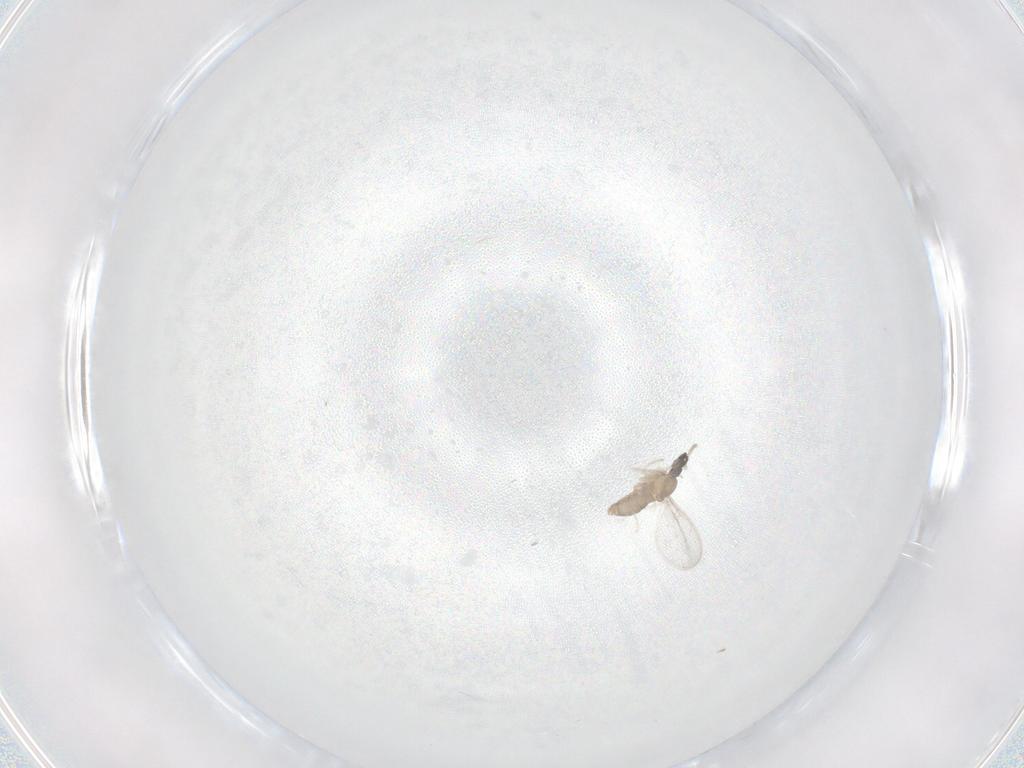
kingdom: Animalia
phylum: Arthropoda
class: Insecta
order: Diptera
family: Cecidomyiidae
